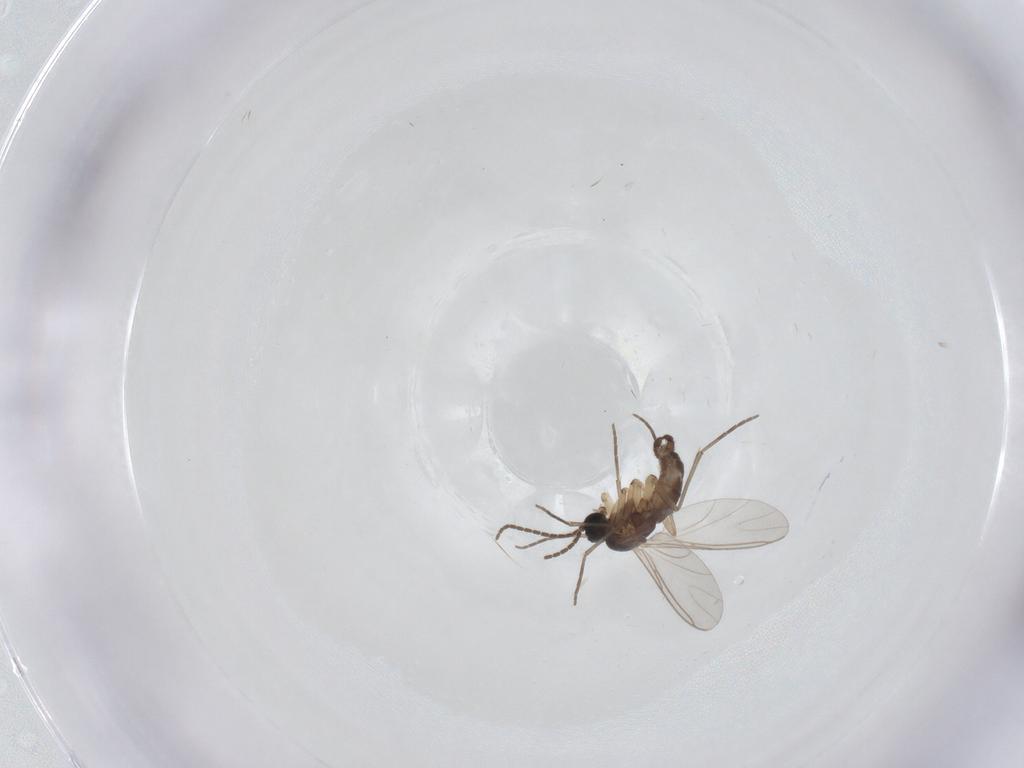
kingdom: Animalia
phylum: Arthropoda
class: Insecta
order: Diptera
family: Sciaridae
